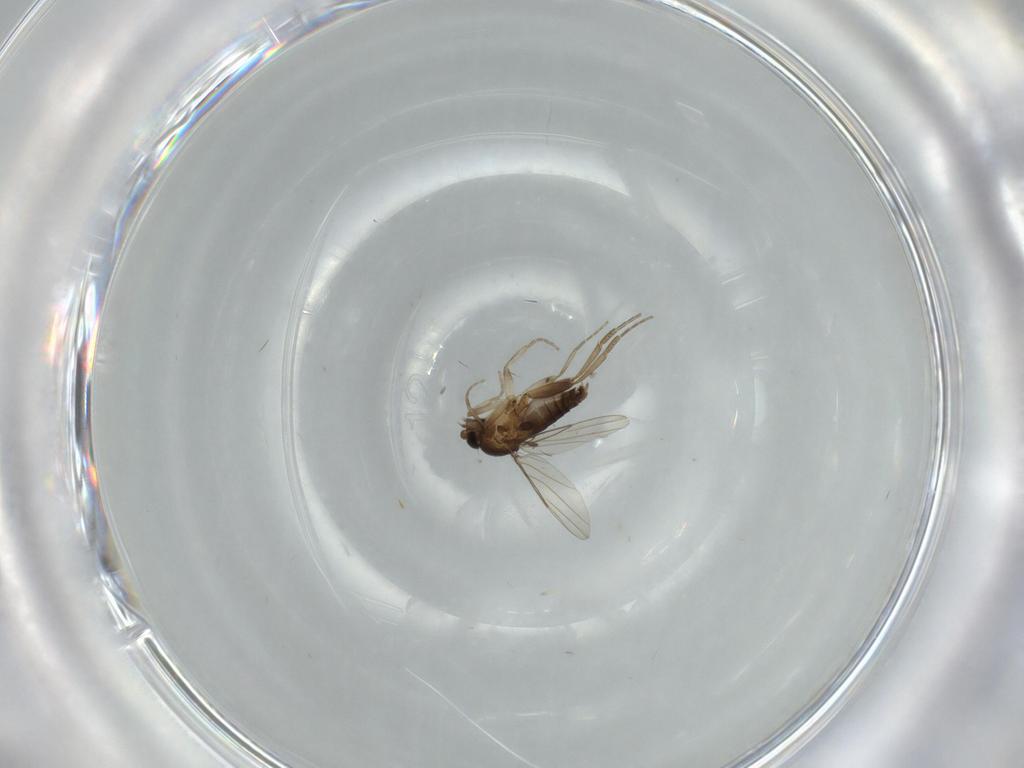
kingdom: Animalia
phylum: Arthropoda
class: Insecta
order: Diptera
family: Phoridae
